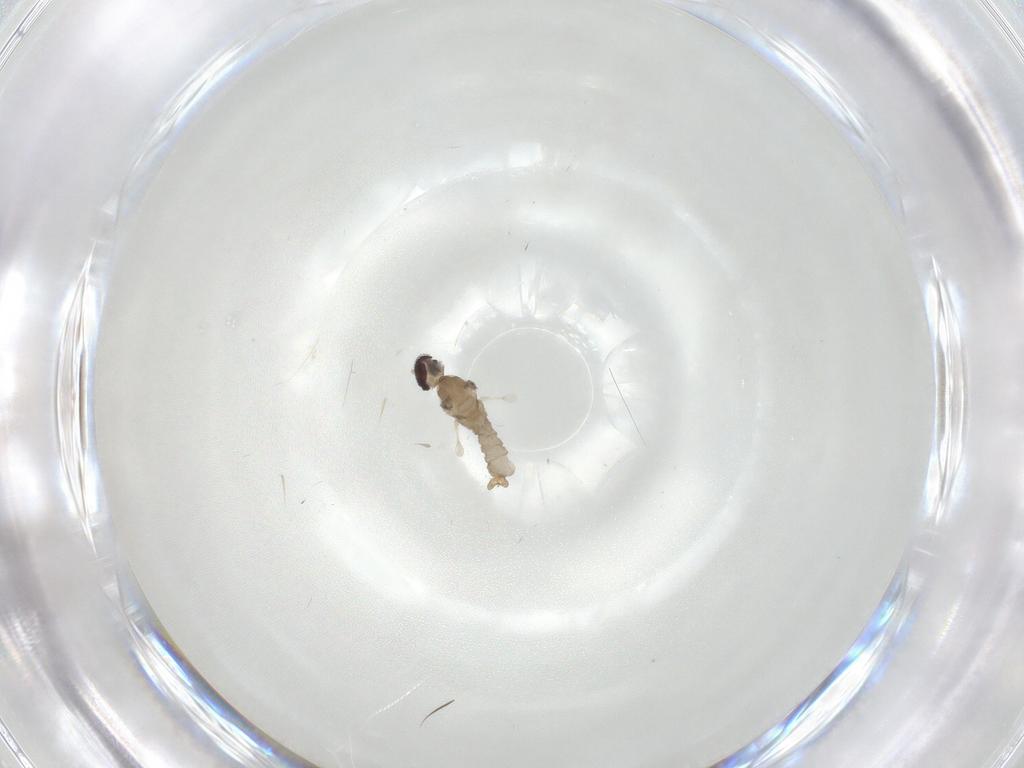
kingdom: Animalia
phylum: Arthropoda
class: Insecta
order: Diptera
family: Cecidomyiidae
